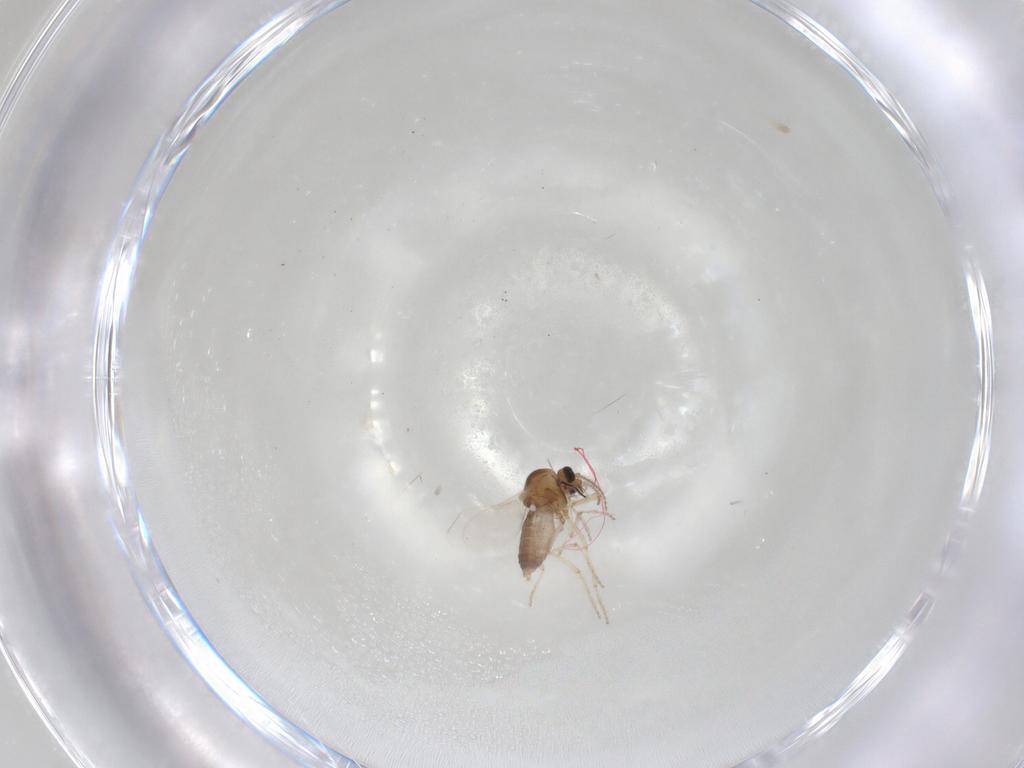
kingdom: Animalia
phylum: Arthropoda
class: Insecta
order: Diptera
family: Ceratopogonidae
